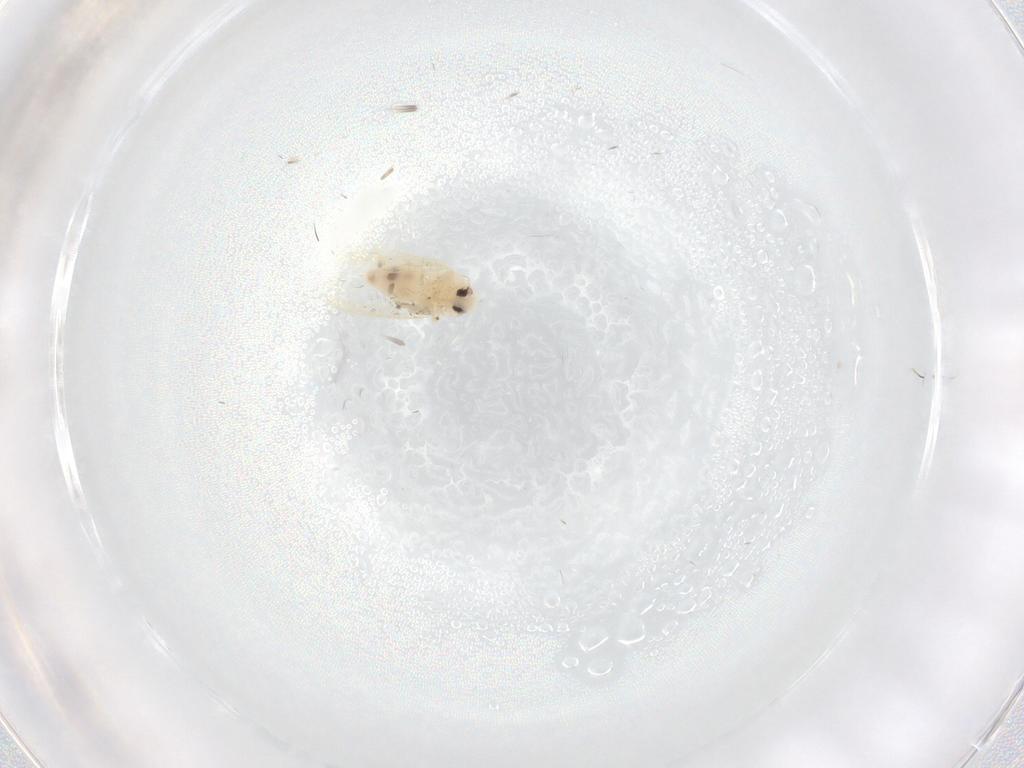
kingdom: Animalia
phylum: Arthropoda
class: Insecta
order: Hemiptera
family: Aleyrodidae
